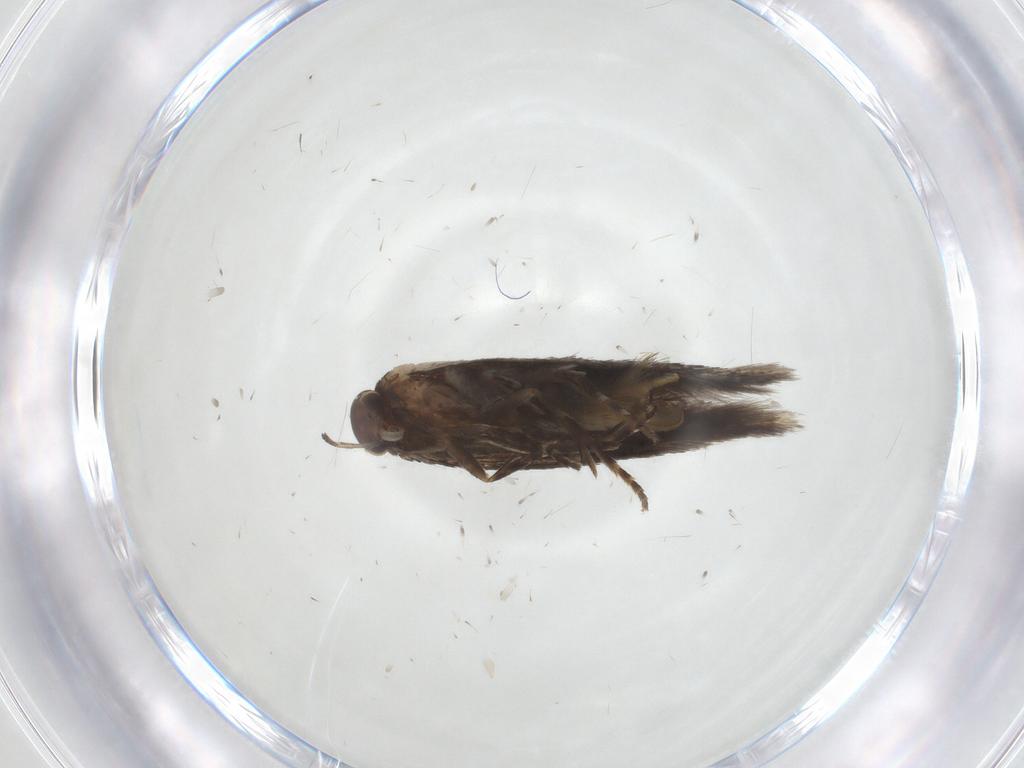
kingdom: Animalia
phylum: Arthropoda
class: Insecta
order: Lepidoptera
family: Elachistidae
